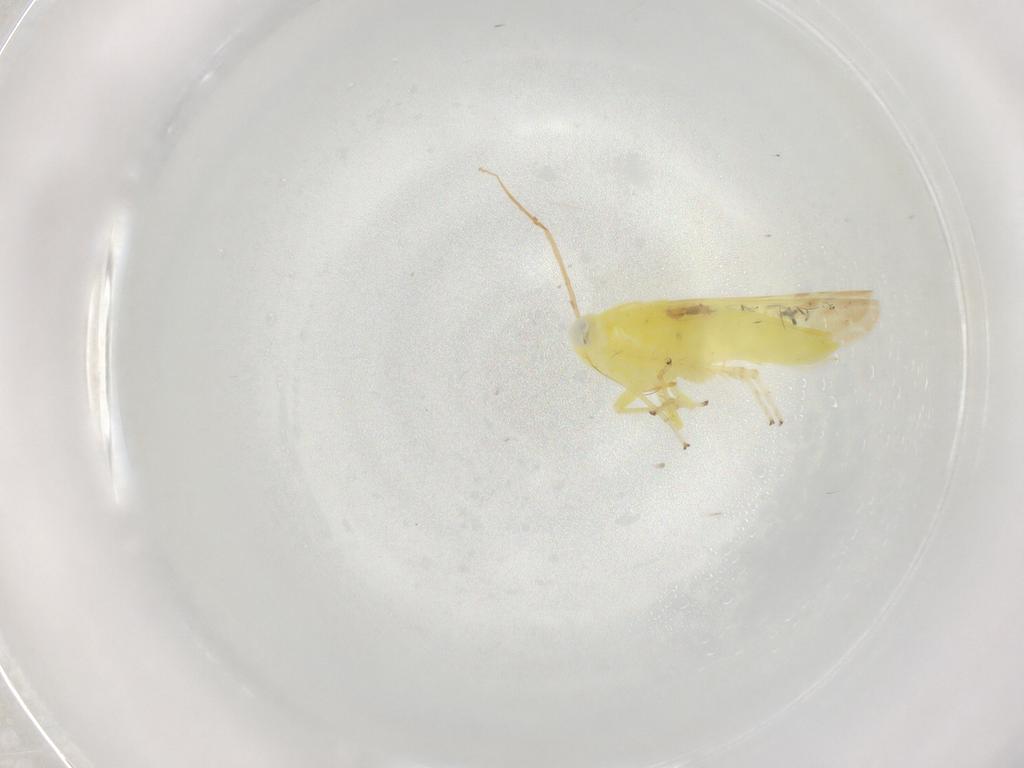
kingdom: Animalia
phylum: Arthropoda
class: Insecta
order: Hemiptera
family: Cicadellidae
